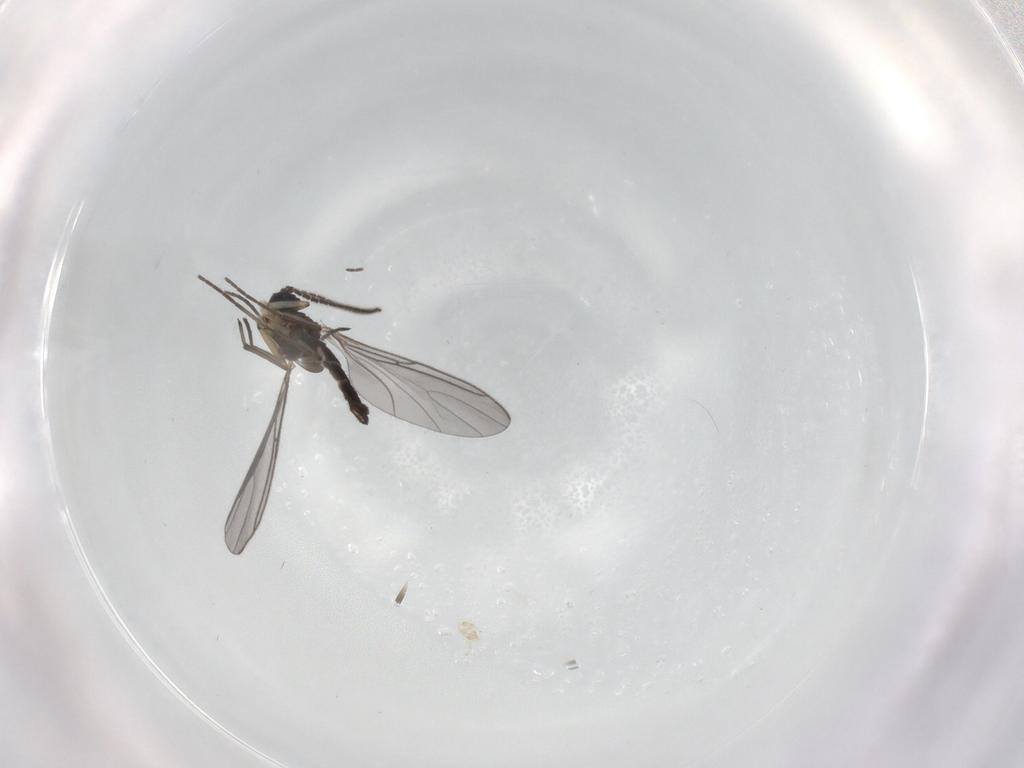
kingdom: Animalia
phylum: Arthropoda
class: Insecta
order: Diptera
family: Sciaridae
